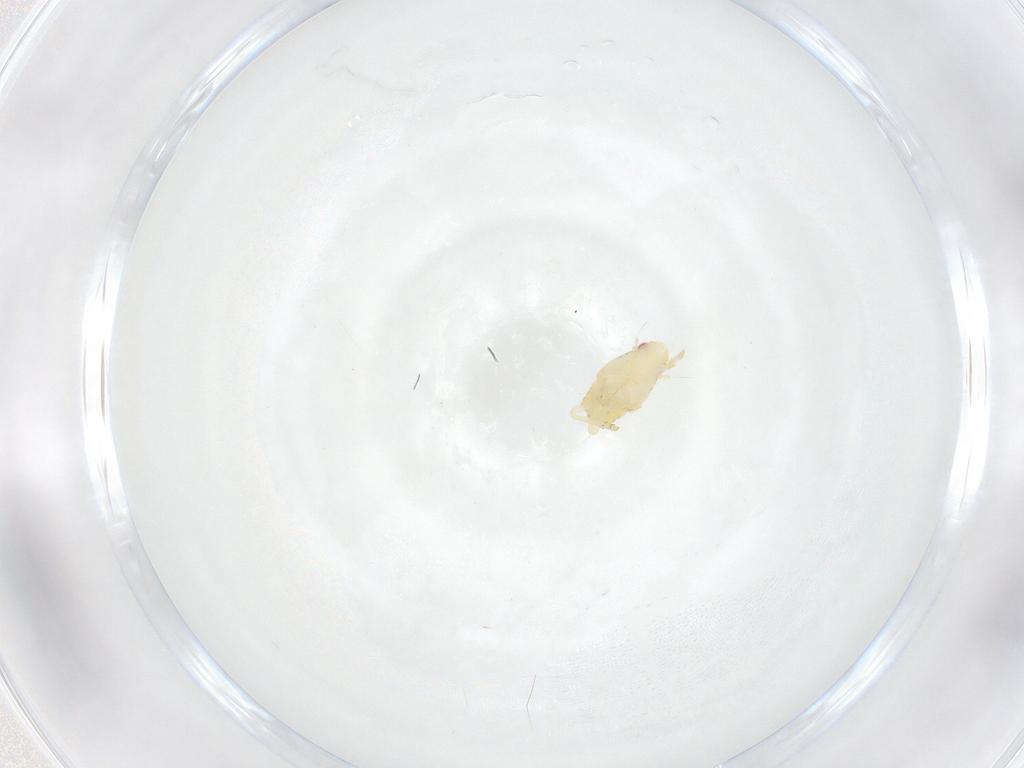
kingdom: Animalia
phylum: Arthropoda
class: Insecta
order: Hemiptera
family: Flatidae
